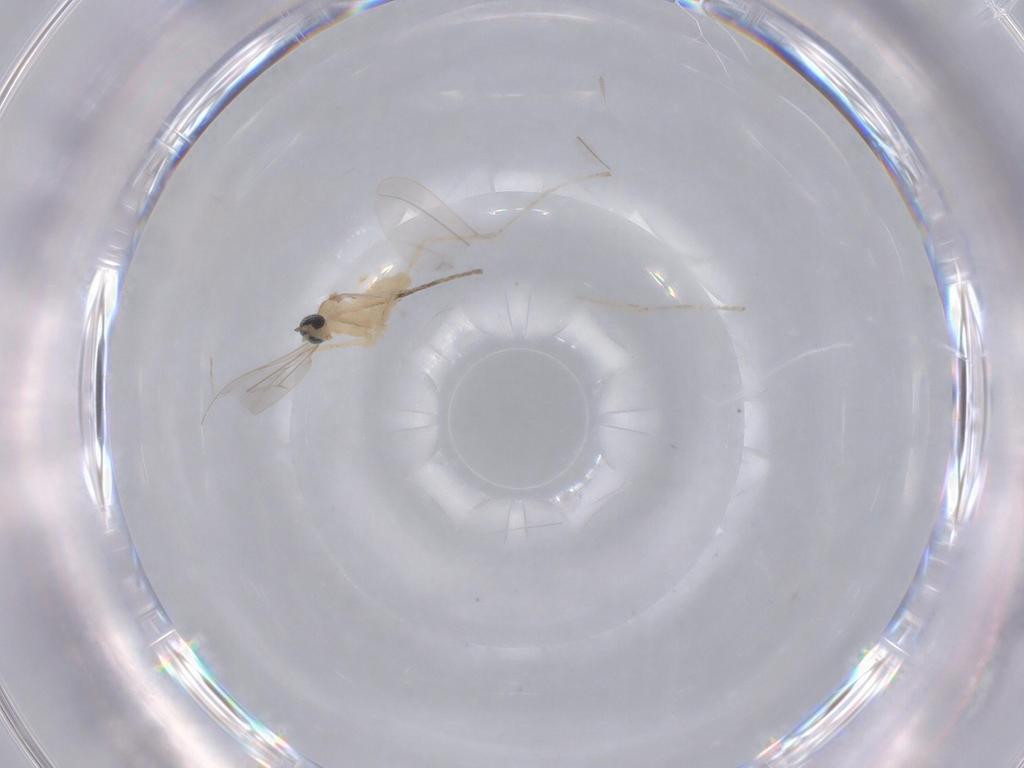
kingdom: Animalia
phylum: Arthropoda
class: Insecta
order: Diptera
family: Cecidomyiidae
